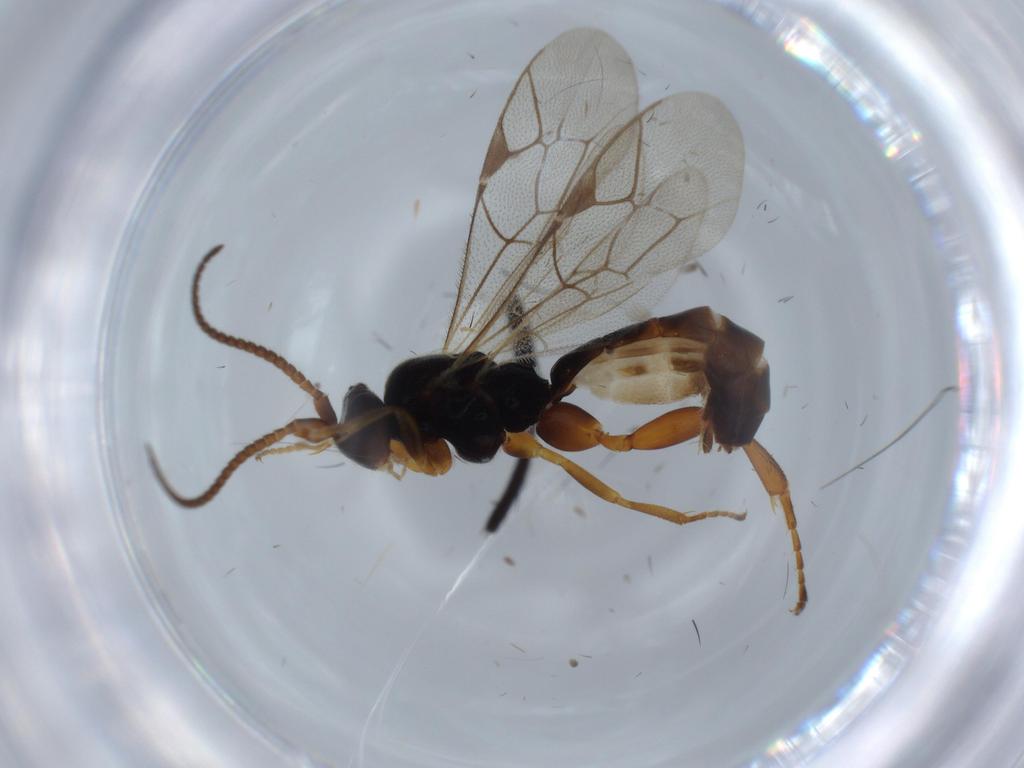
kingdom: Animalia
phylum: Arthropoda
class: Insecta
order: Hymenoptera
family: Ichneumonidae
